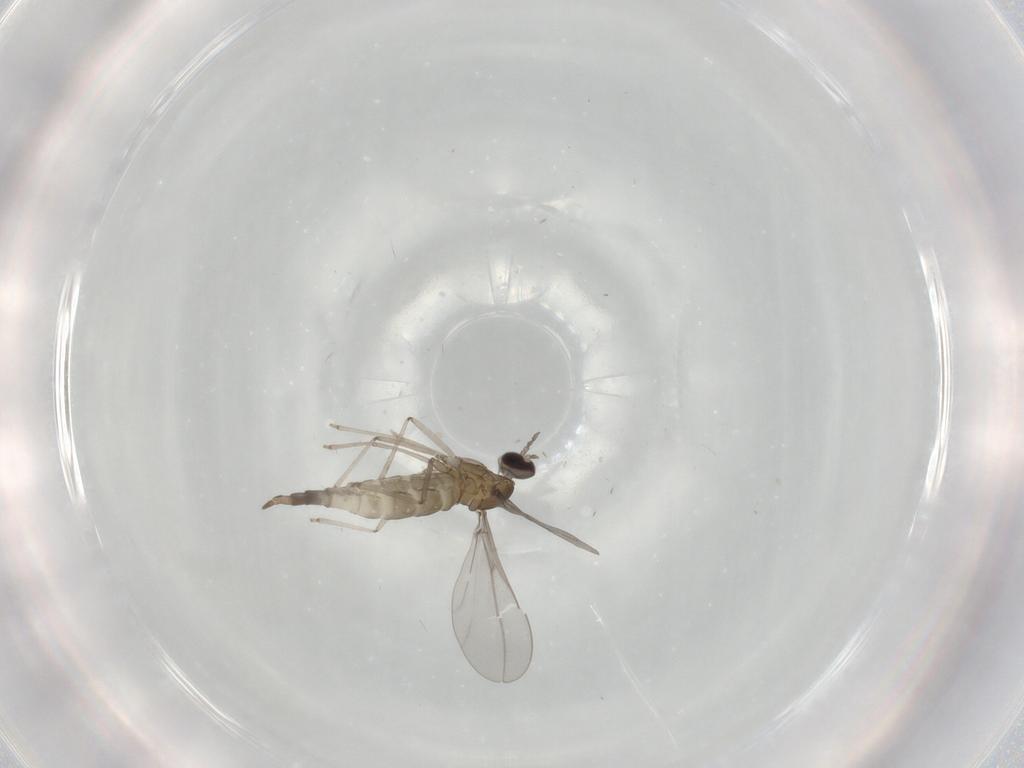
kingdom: Animalia
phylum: Arthropoda
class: Insecta
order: Diptera
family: Cecidomyiidae
